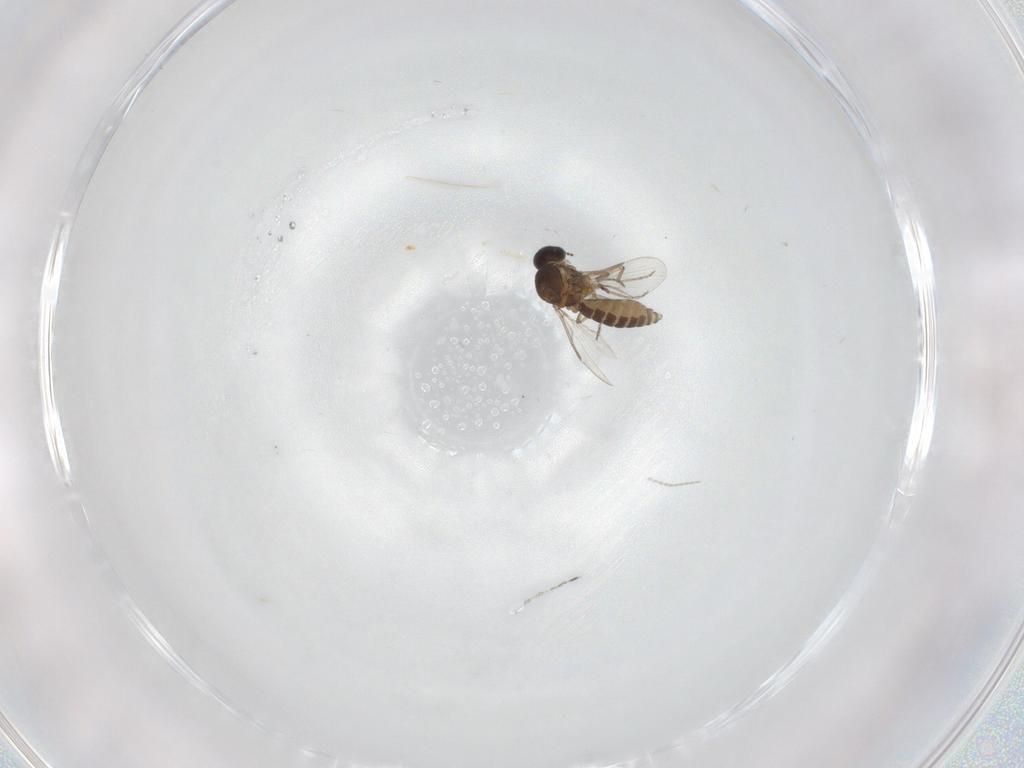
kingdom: Animalia
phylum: Arthropoda
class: Insecta
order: Diptera
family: Ceratopogonidae
